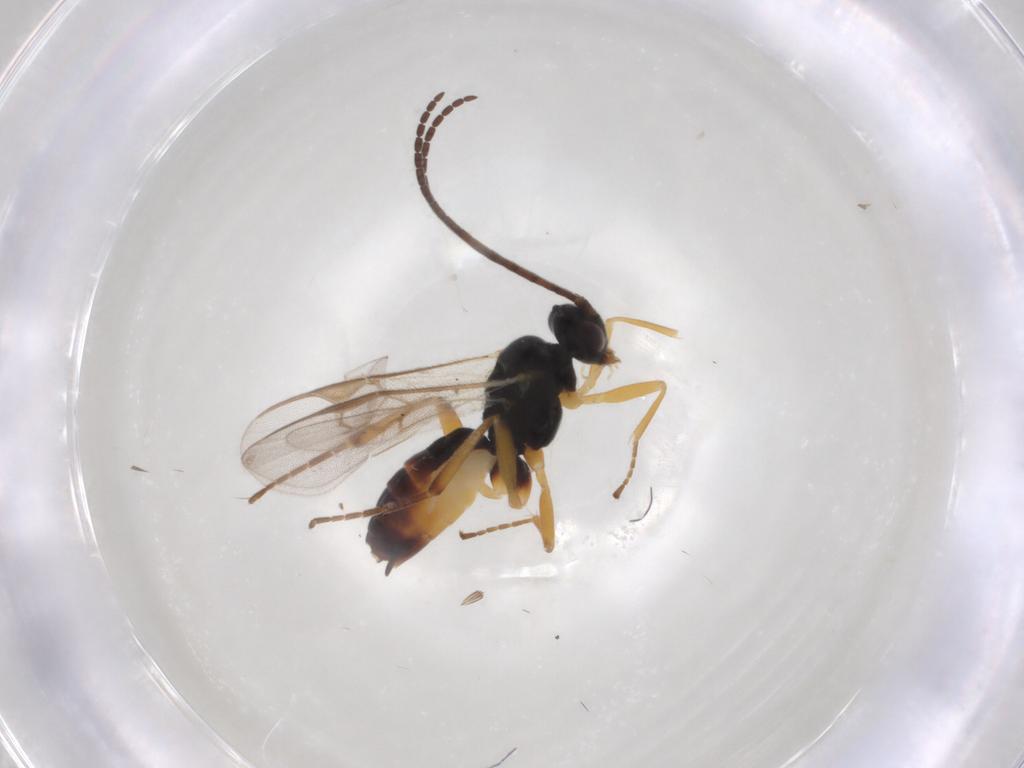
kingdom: Animalia
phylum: Arthropoda
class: Insecta
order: Hymenoptera
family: Braconidae
